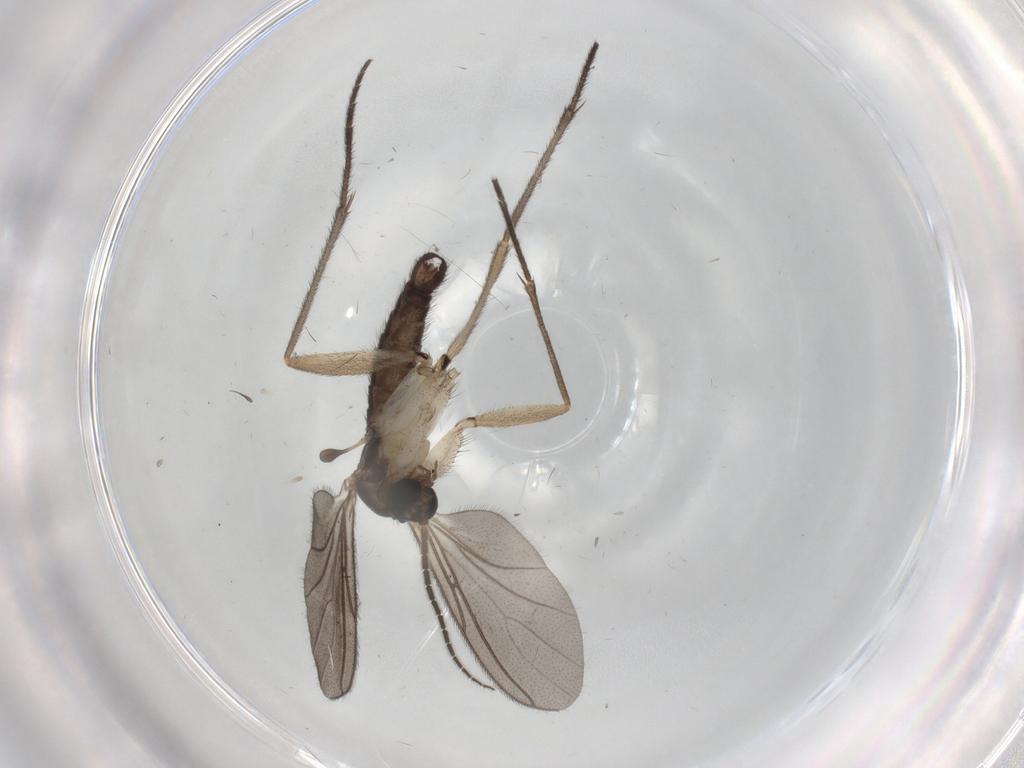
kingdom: Animalia
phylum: Arthropoda
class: Insecta
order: Diptera
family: Sciaridae
